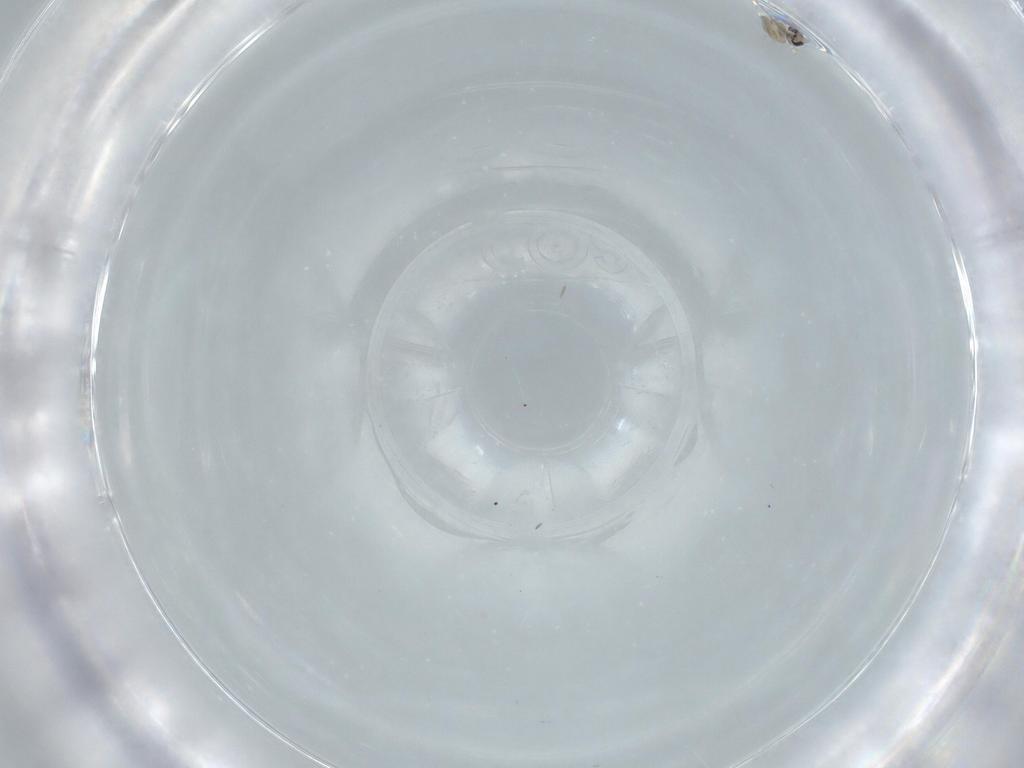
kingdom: Animalia
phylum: Arthropoda
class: Insecta
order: Diptera
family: Cecidomyiidae
